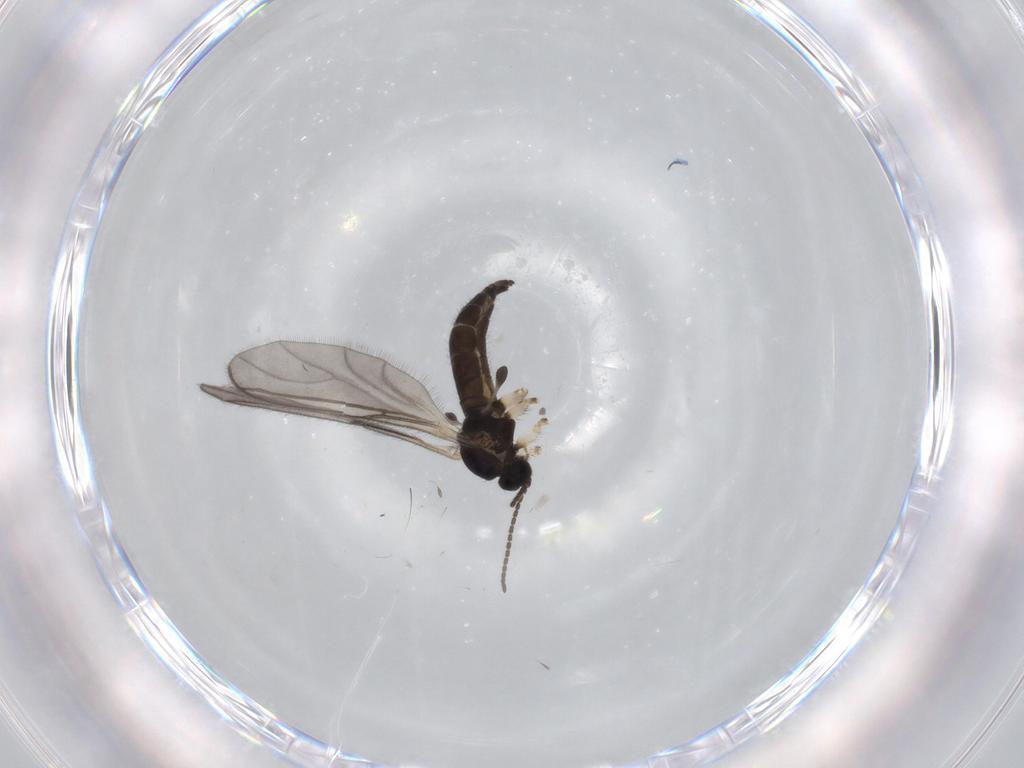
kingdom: Animalia
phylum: Arthropoda
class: Insecta
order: Diptera
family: Sciaridae
